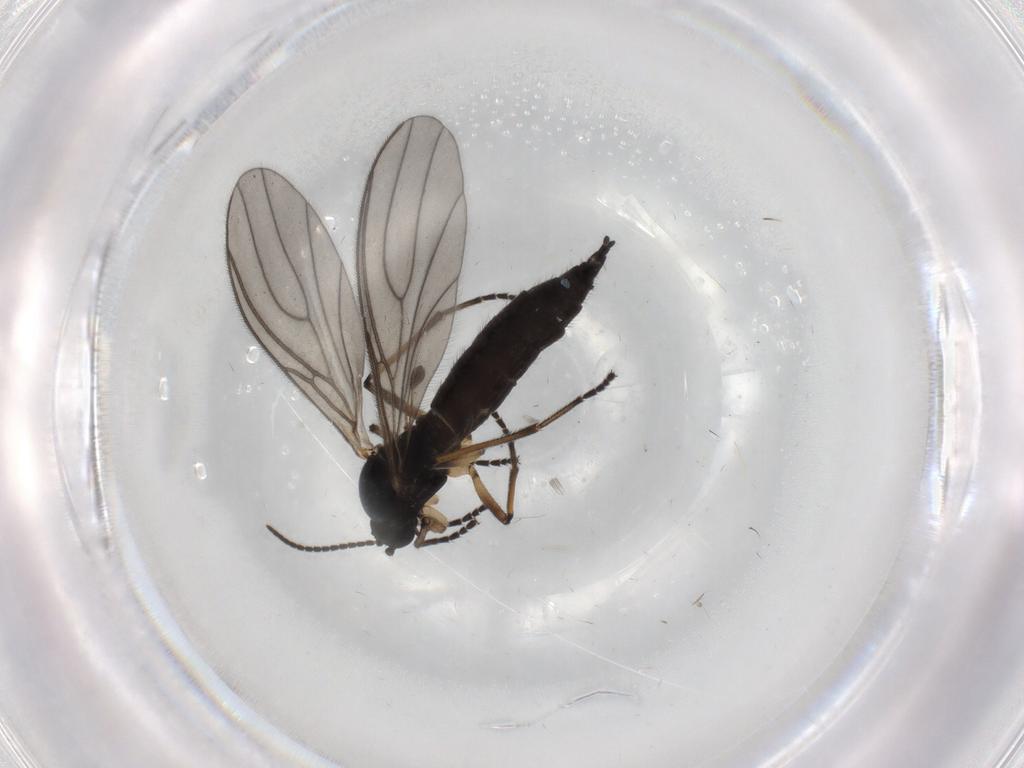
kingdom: Animalia
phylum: Arthropoda
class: Insecta
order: Diptera
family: Sciaridae
